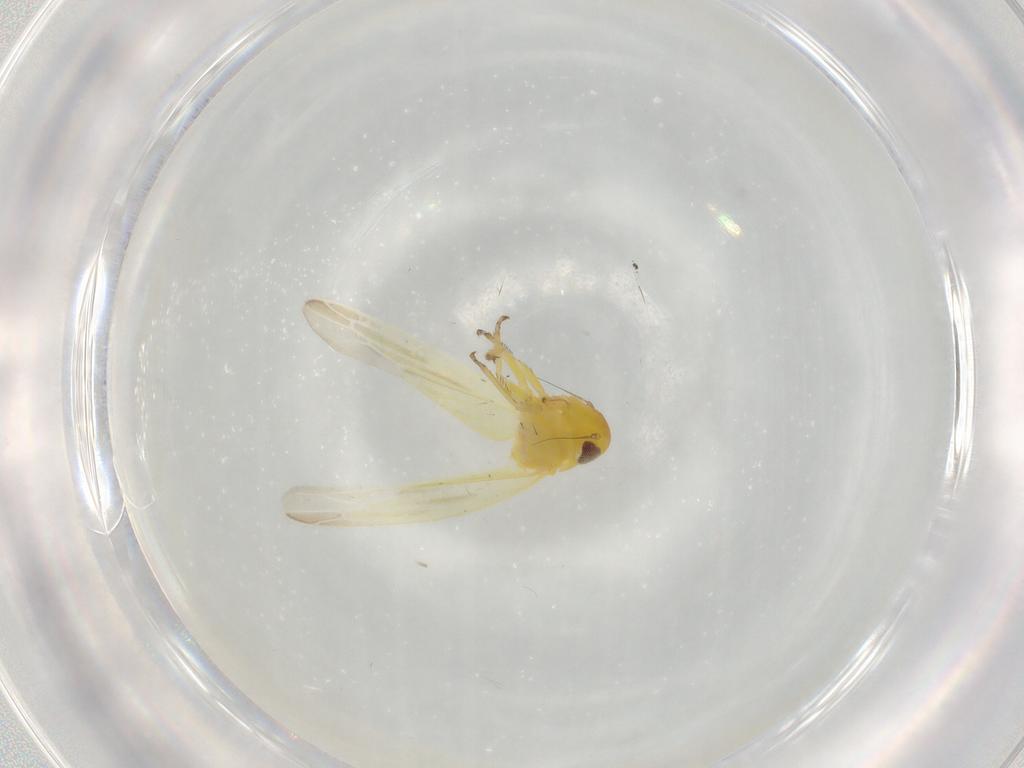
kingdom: Animalia
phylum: Arthropoda
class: Insecta
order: Hemiptera
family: Cicadellidae
